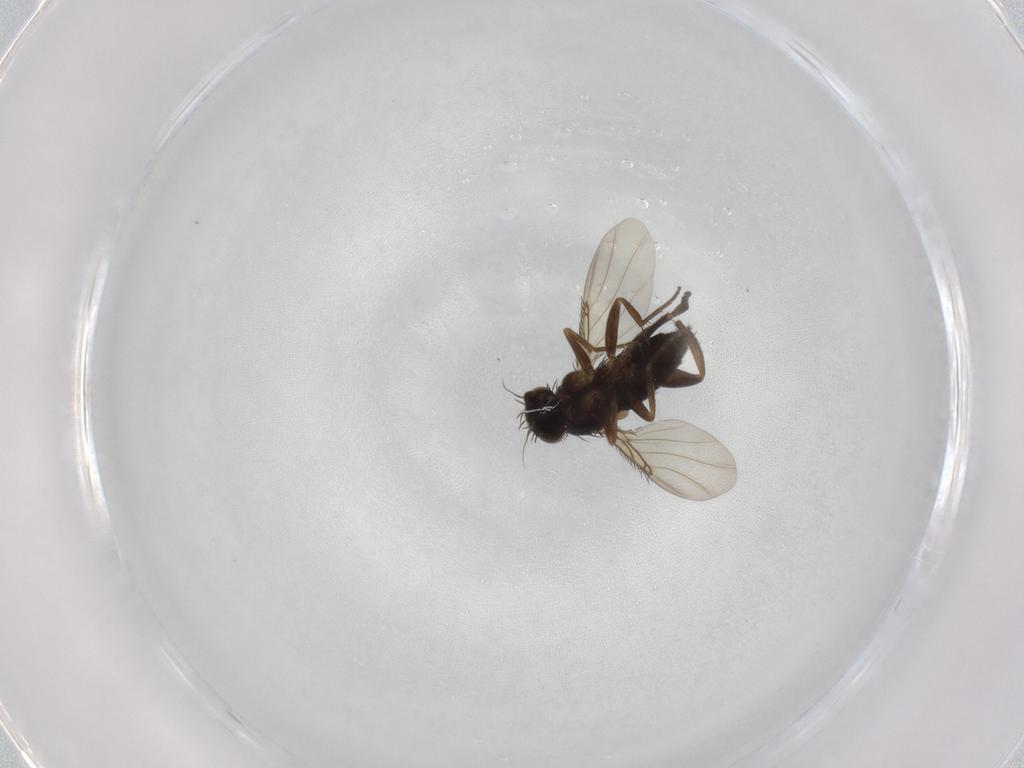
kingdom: Animalia
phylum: Arthropoda
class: Insecta
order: Diptera
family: Phoridae
